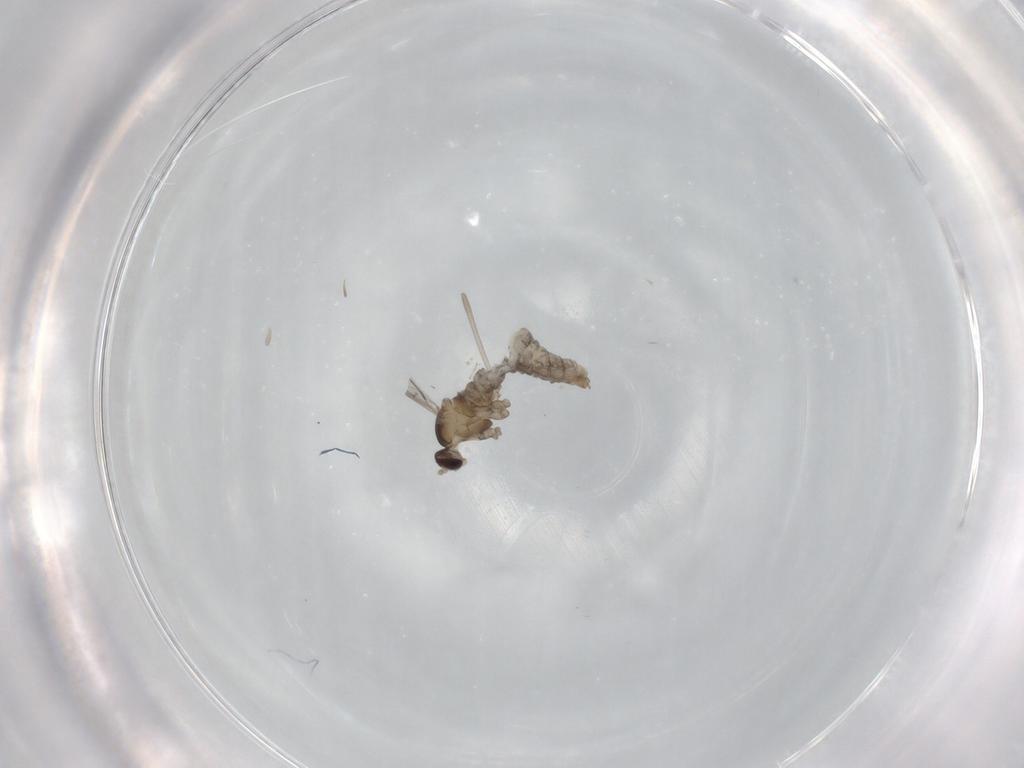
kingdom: Animalia
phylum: Arthropoda
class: Insecta
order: Diptera
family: Cecidomyiidae
